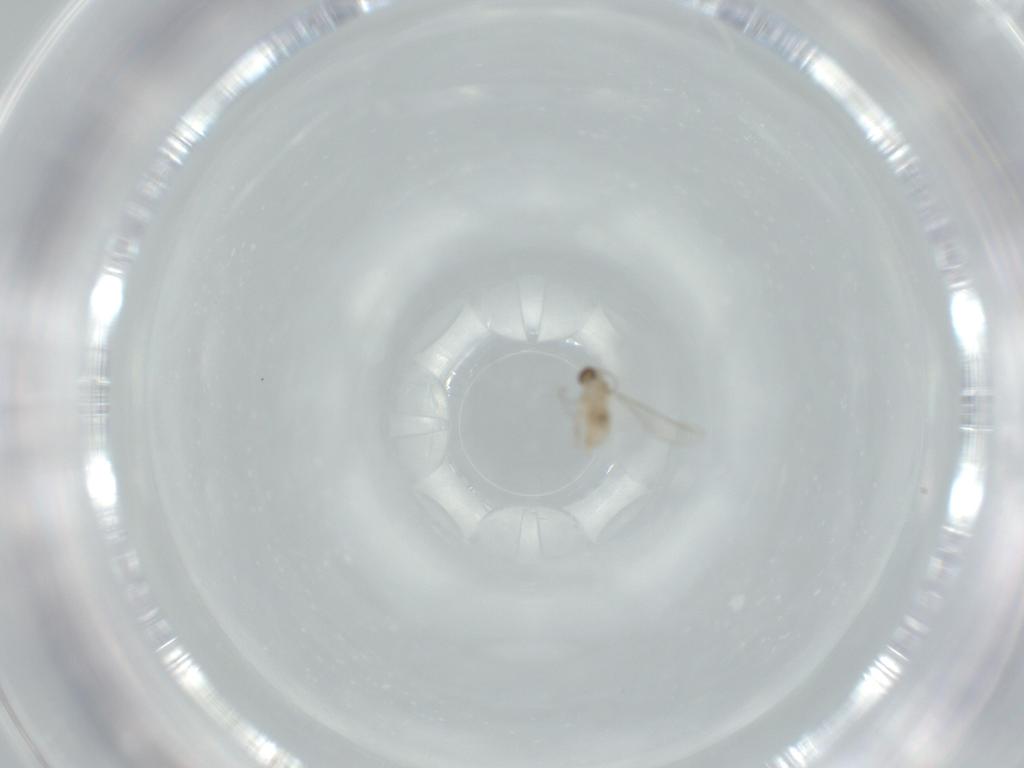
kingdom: Animalia
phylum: Arthropoda
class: Insecta
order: Diptera
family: Cecidomyiidae
